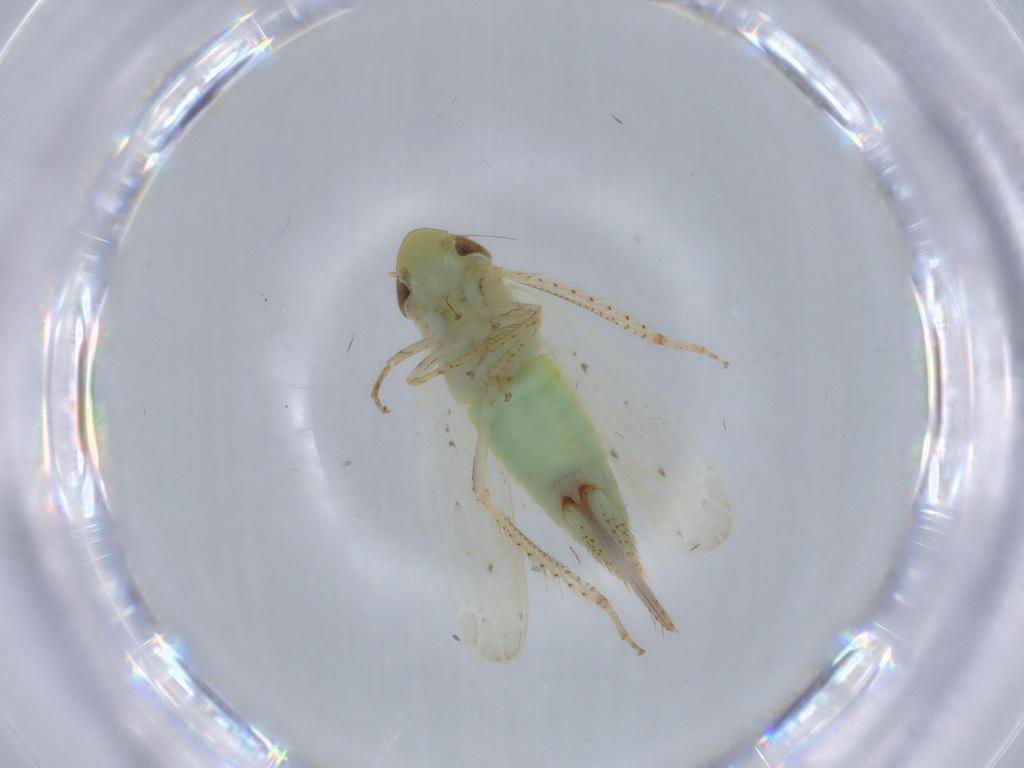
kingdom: Animalia
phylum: Arthropoda
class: Insecta
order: Hemiptera
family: Cicadellidae
